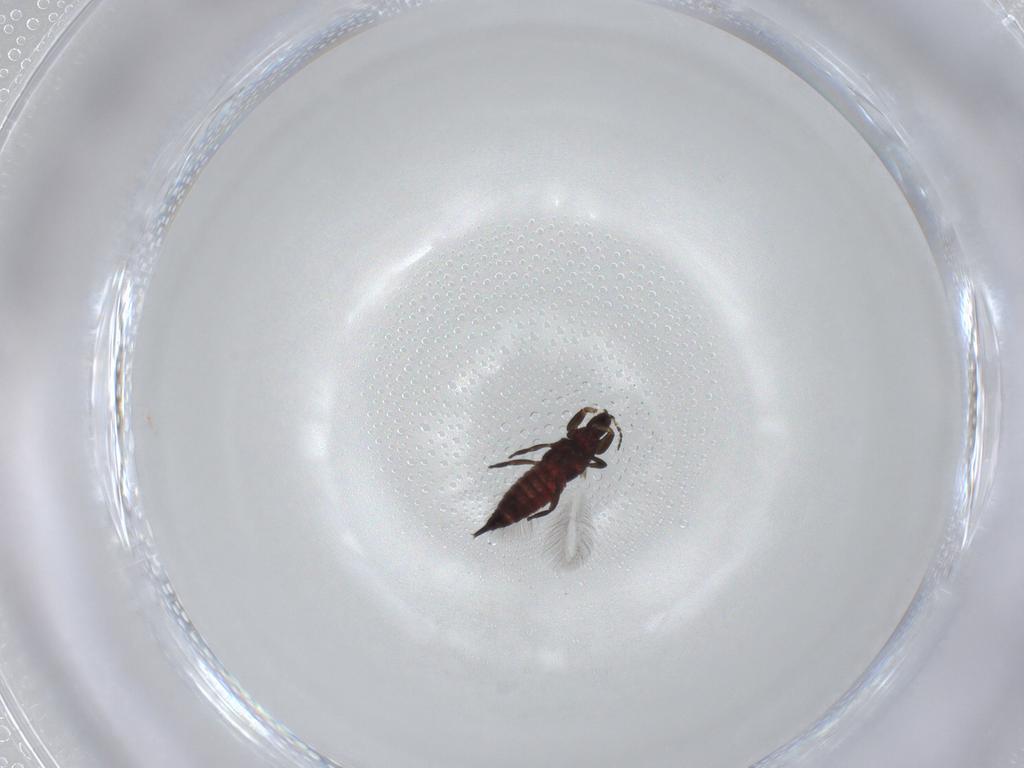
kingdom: Animalia
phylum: Arthropoda
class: Insecta
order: Thysanoptera
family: Phlaeothripidae
